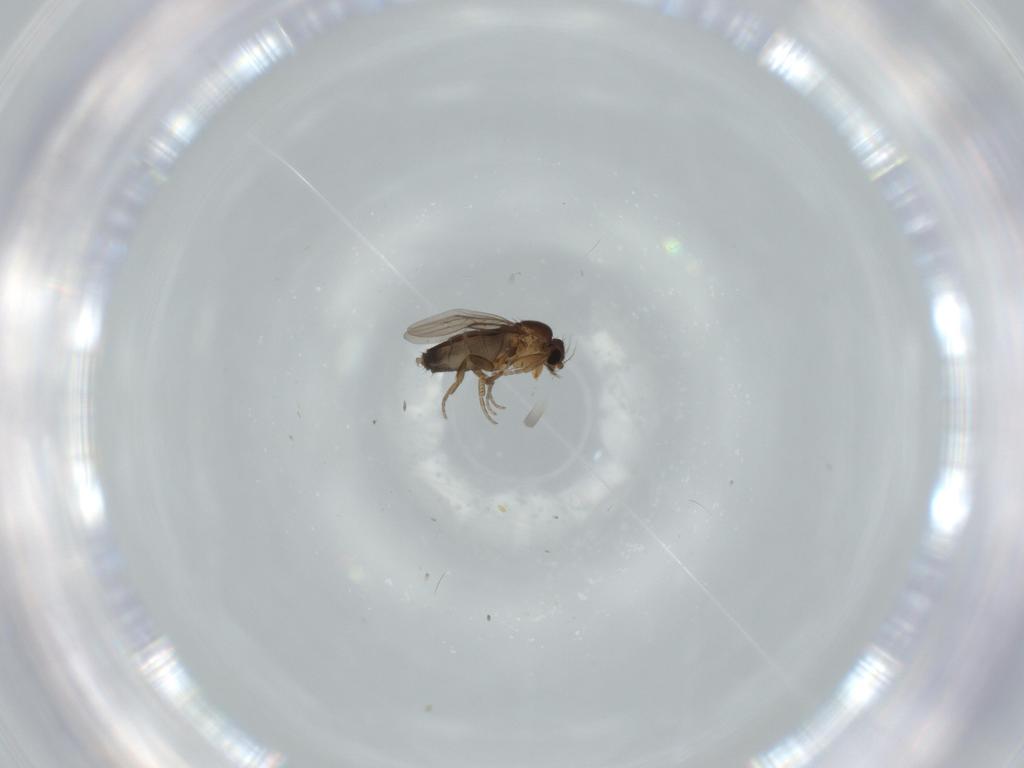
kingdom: Animalia
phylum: Arthropoda
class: Insecta
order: Diptera
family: Phoridae
